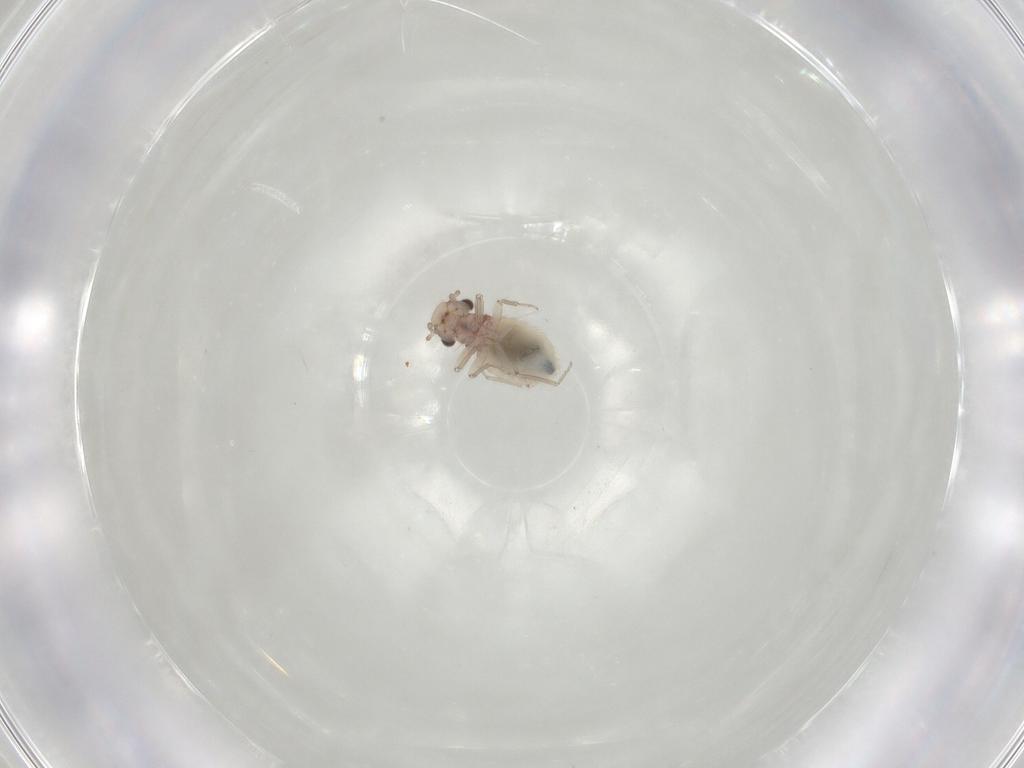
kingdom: Animalia
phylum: Arthropoda
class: Insecta
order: Psocodea
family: Trogiidae
